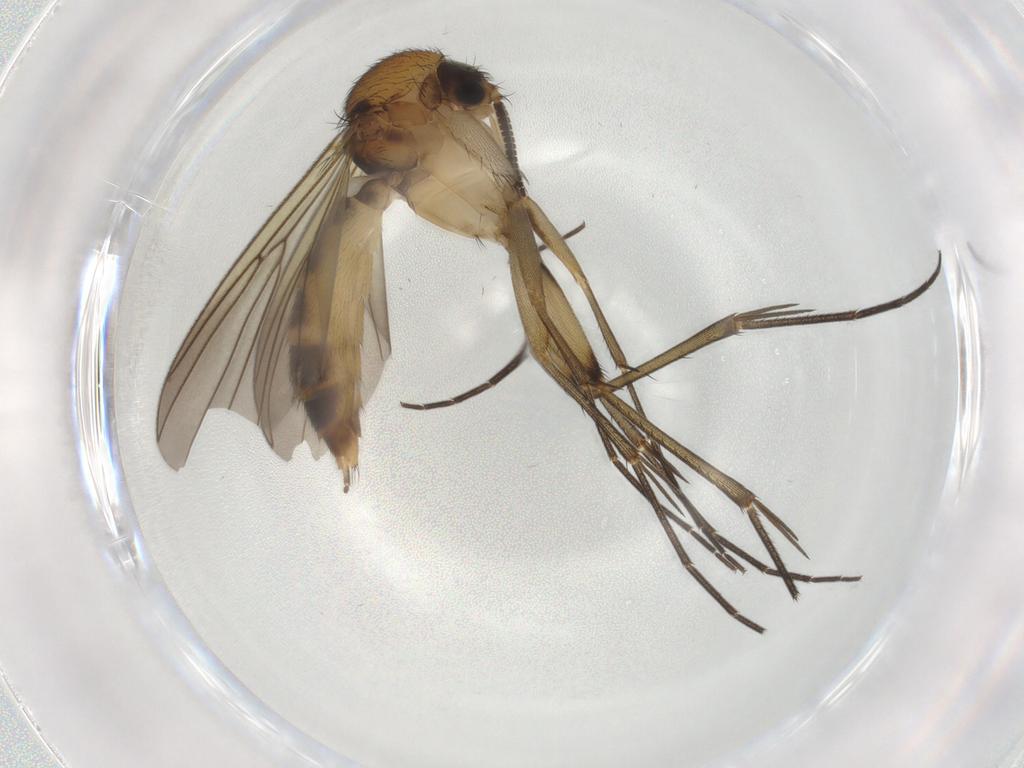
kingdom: Animalia
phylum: Arthropoda
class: Insecta
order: Diptera
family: Mycetophilidae
